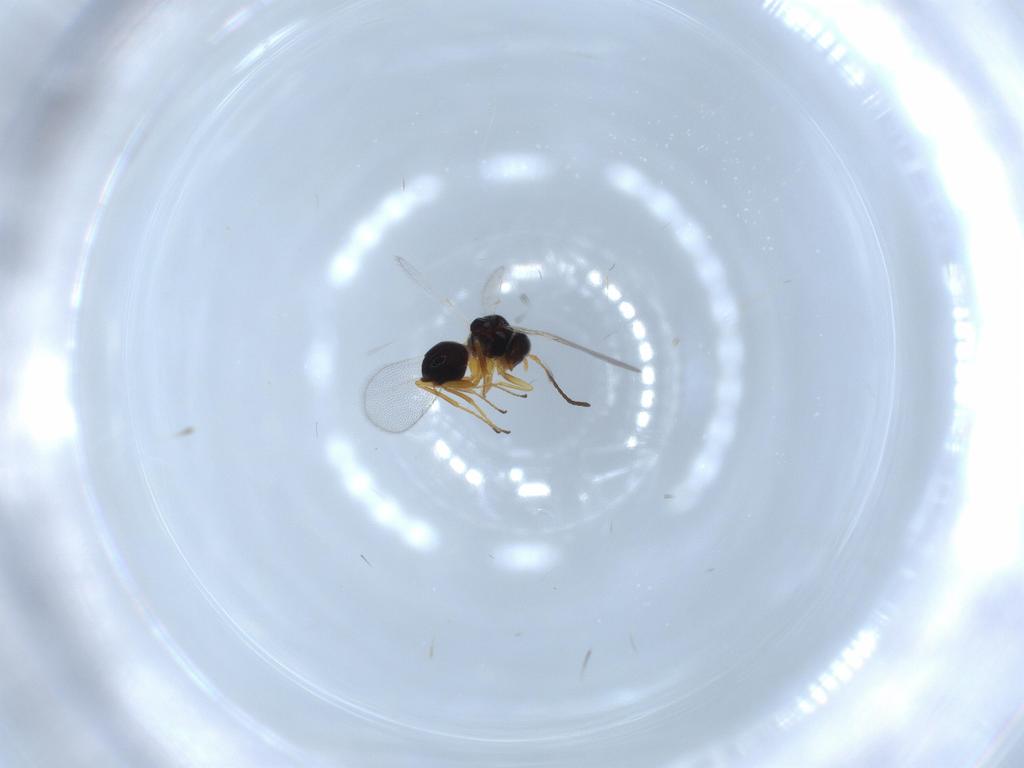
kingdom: Animalia
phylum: Arthropoda
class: Insecta
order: Hymenoptera
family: Figitidae
